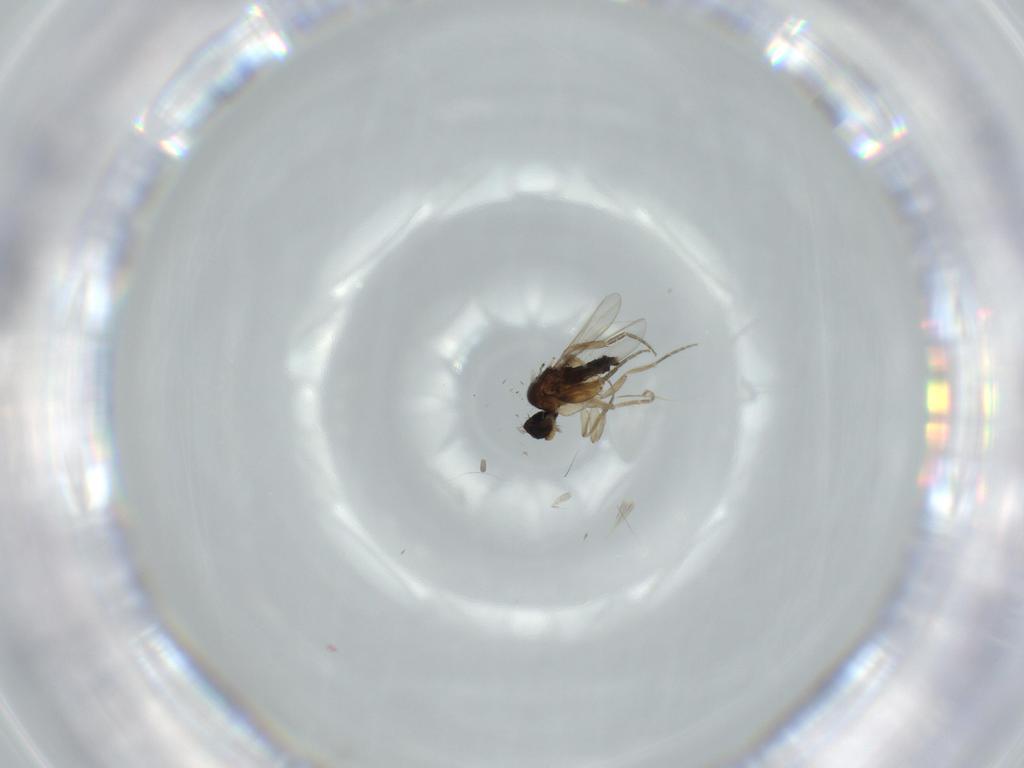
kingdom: Animalia
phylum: Arthropoda
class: Insecta
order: Diptera
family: Phoridae
